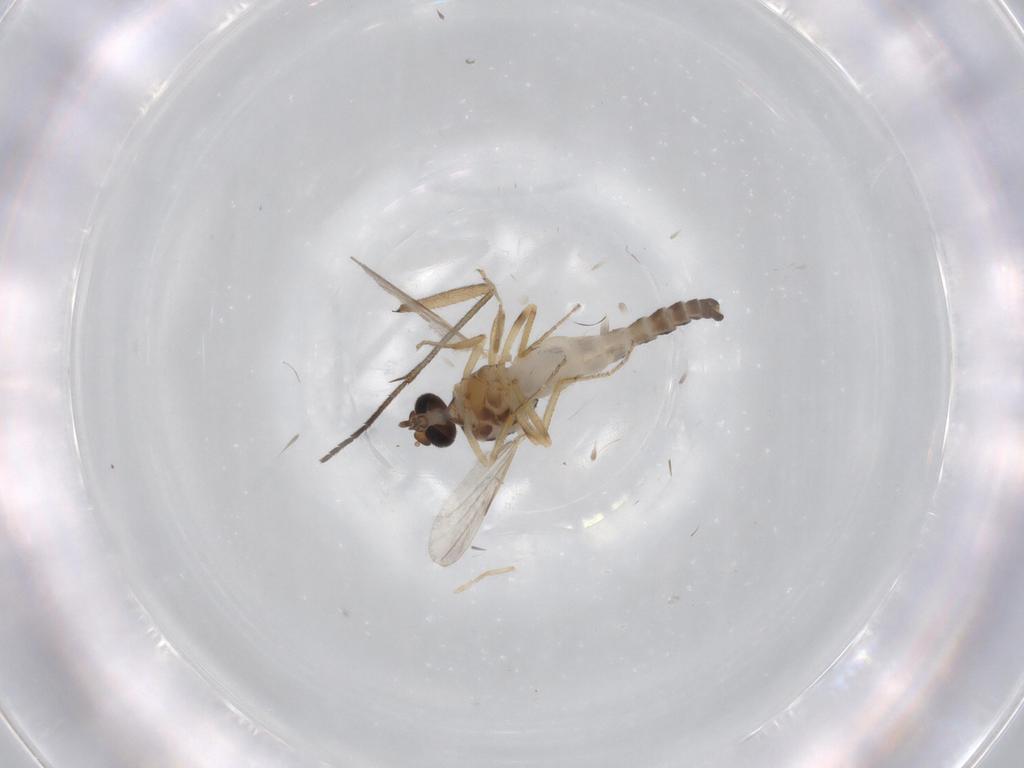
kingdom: Animalia
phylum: Arthropoda
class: Insecta
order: Diptera
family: Ceratopogonidae
